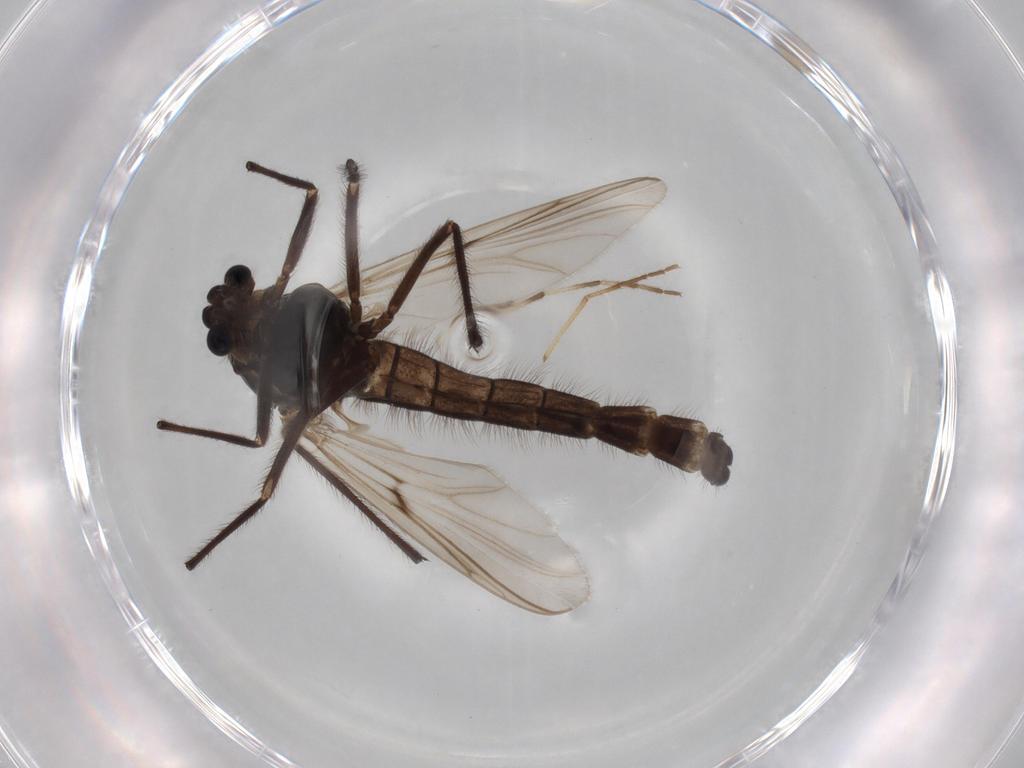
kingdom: Animalia
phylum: Arthropoda
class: Insecta
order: Diptera
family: Chironomidae
